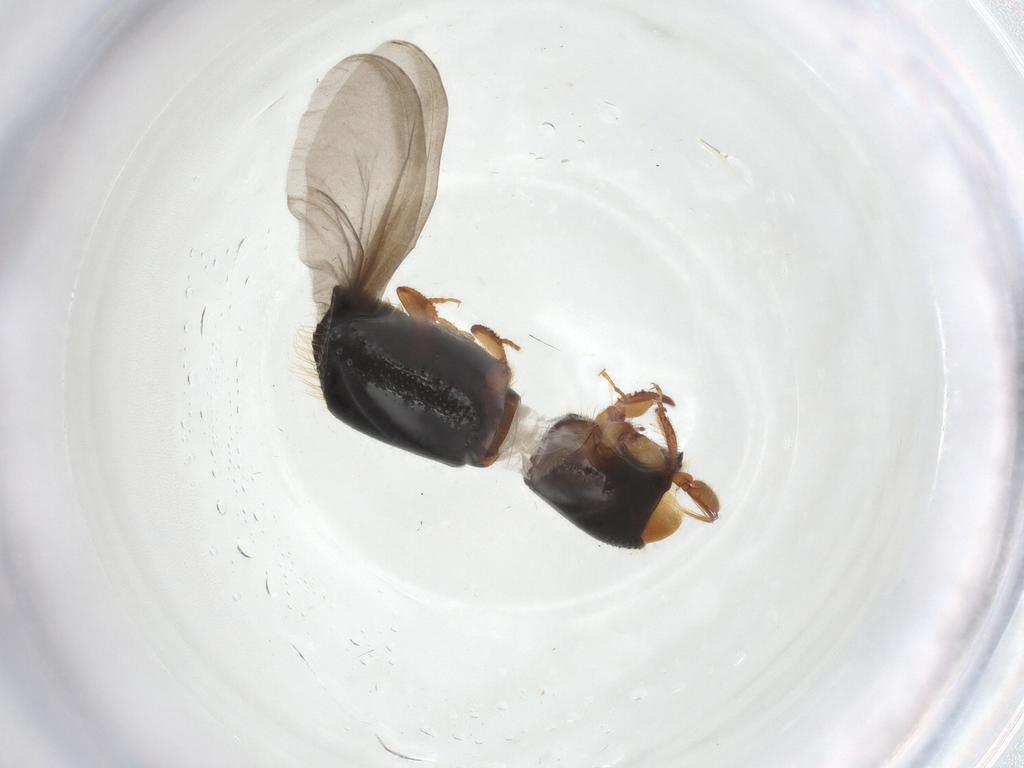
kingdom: Animalia
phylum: Arthropoda
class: Insecta
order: Coleoptera
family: Curculionidae
